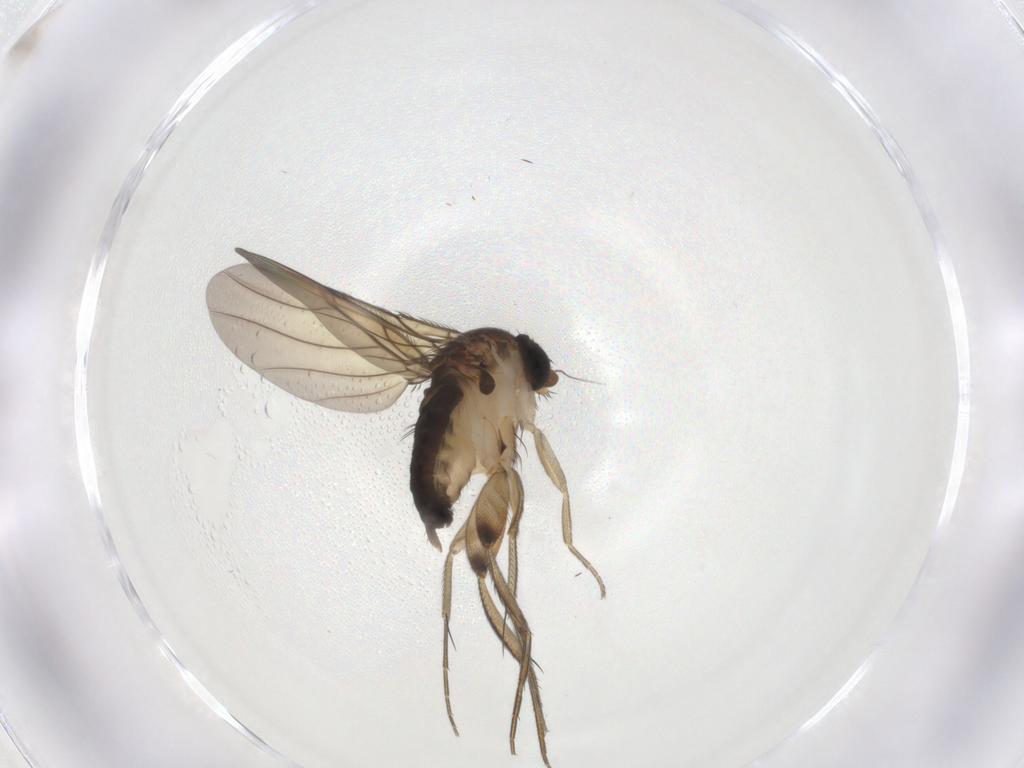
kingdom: Animalia
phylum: Arthropoda
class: Insecta
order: Diptera
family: Phoridae
